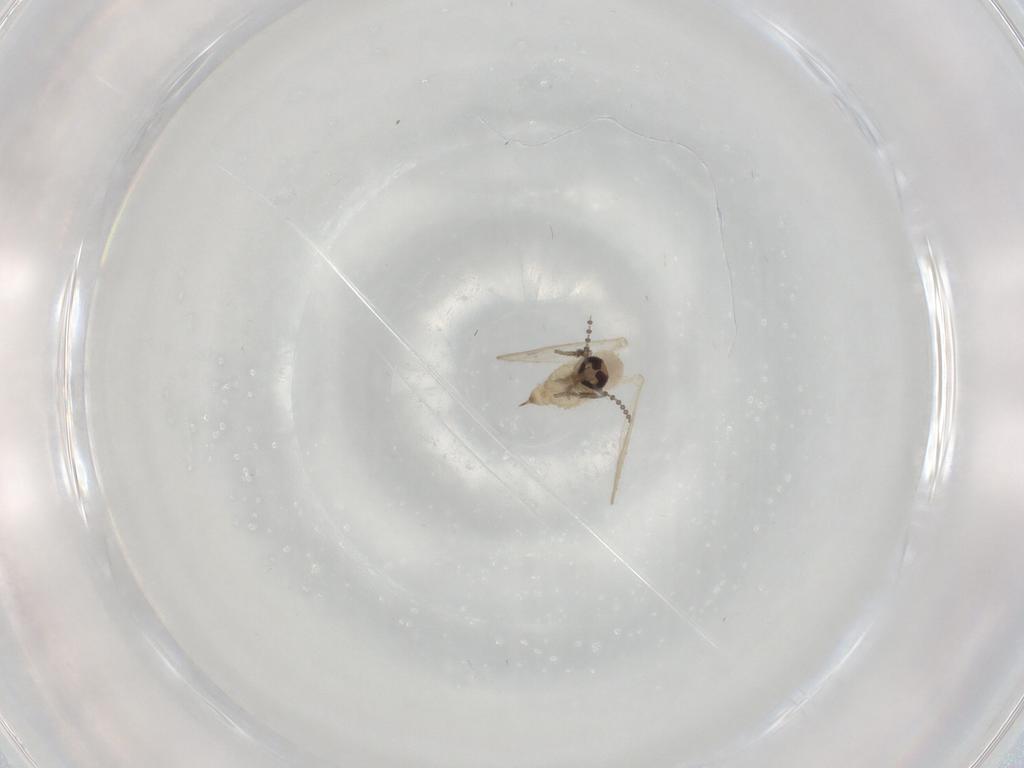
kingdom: Animalia
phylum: Arthropoda
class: Insecta
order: Diptera
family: Psychodidae
